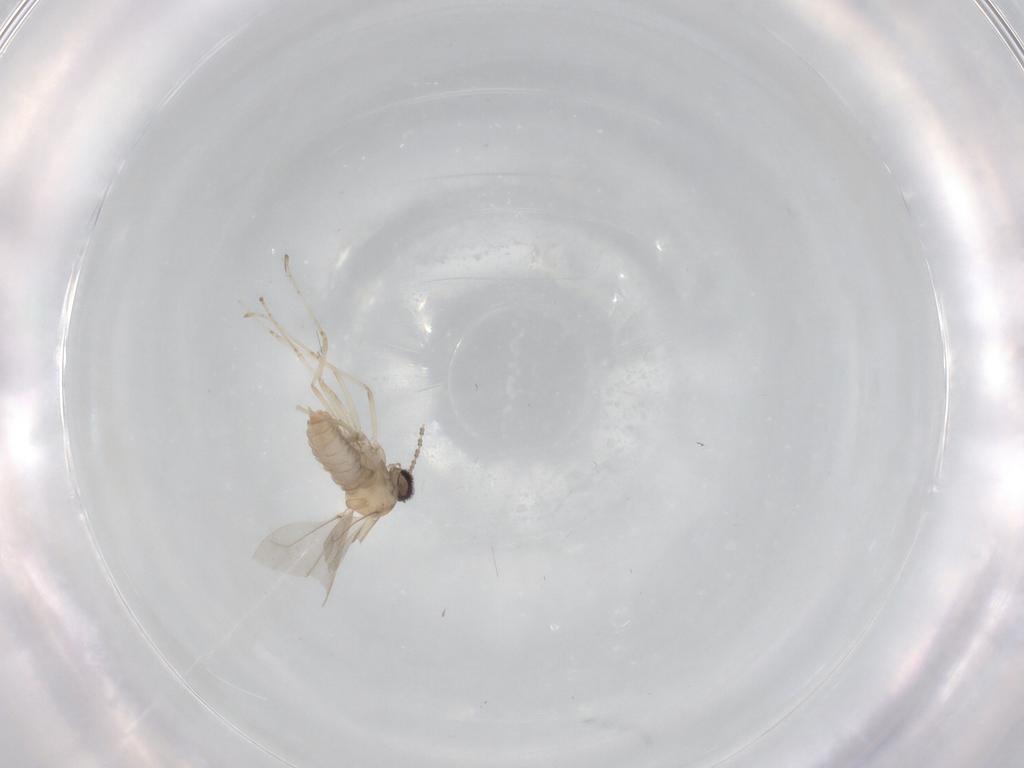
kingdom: Animalia
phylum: Arthropoda
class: Insecta
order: Diptera
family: Cecidomyiidae
